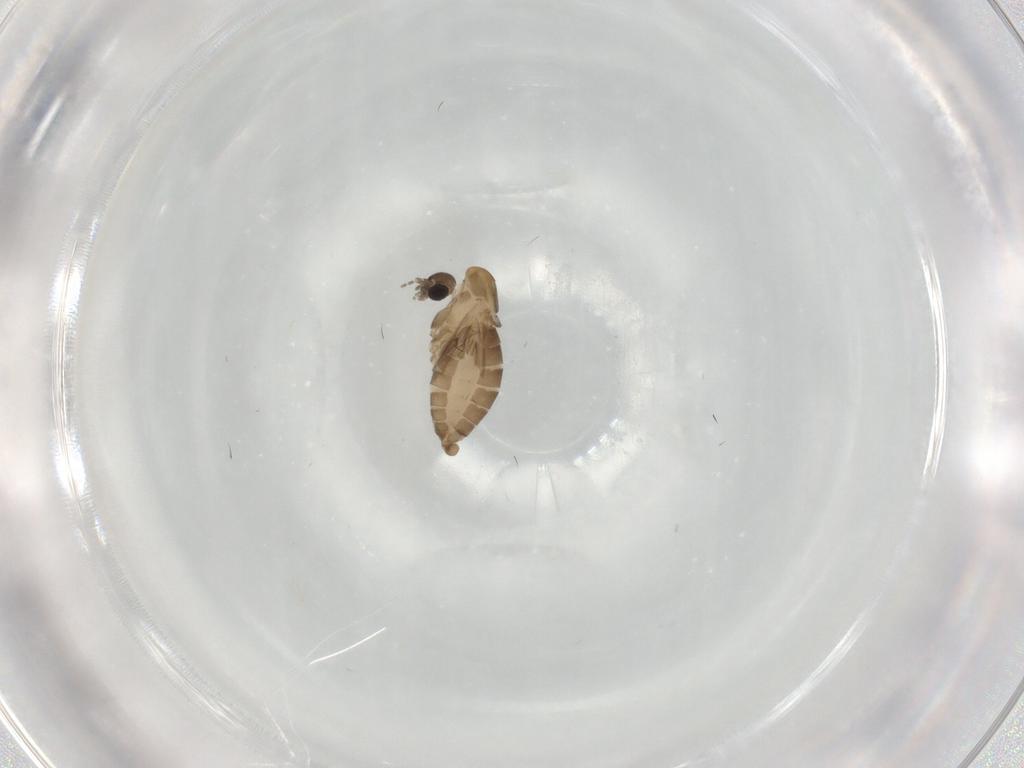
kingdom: Animalia
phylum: Arthropoda
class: Insecta
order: Diptera
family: Psychodidae
